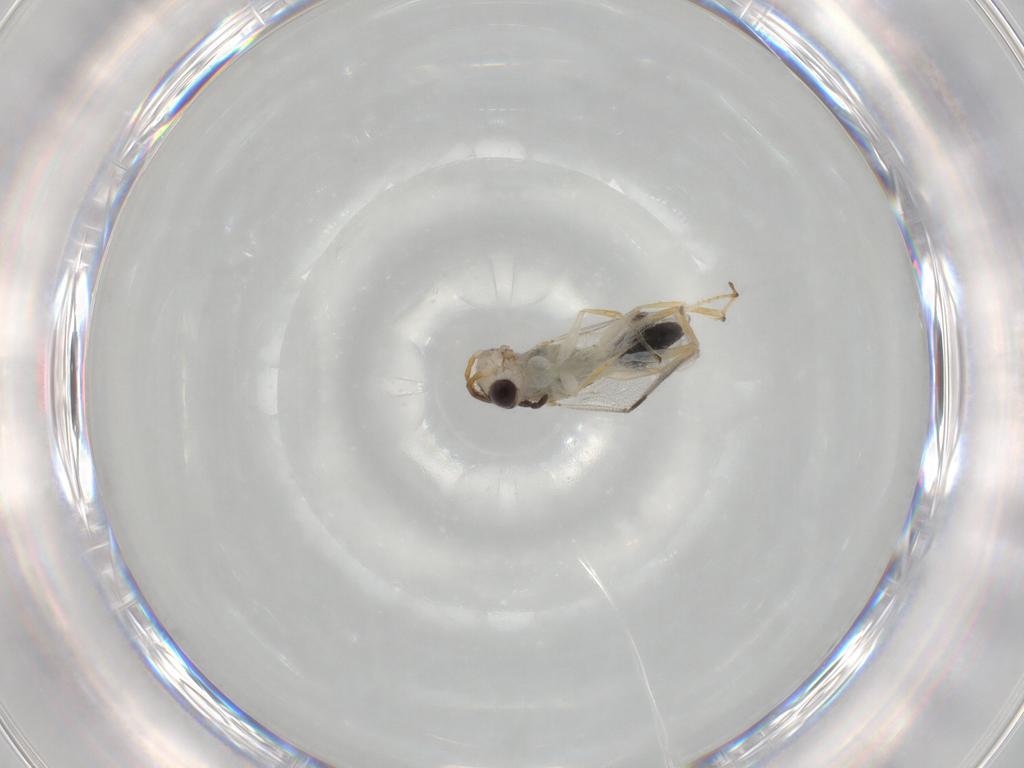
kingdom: Animalia
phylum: Arthropoda
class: Insecta
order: Hymenoptera
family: Dryinidae
